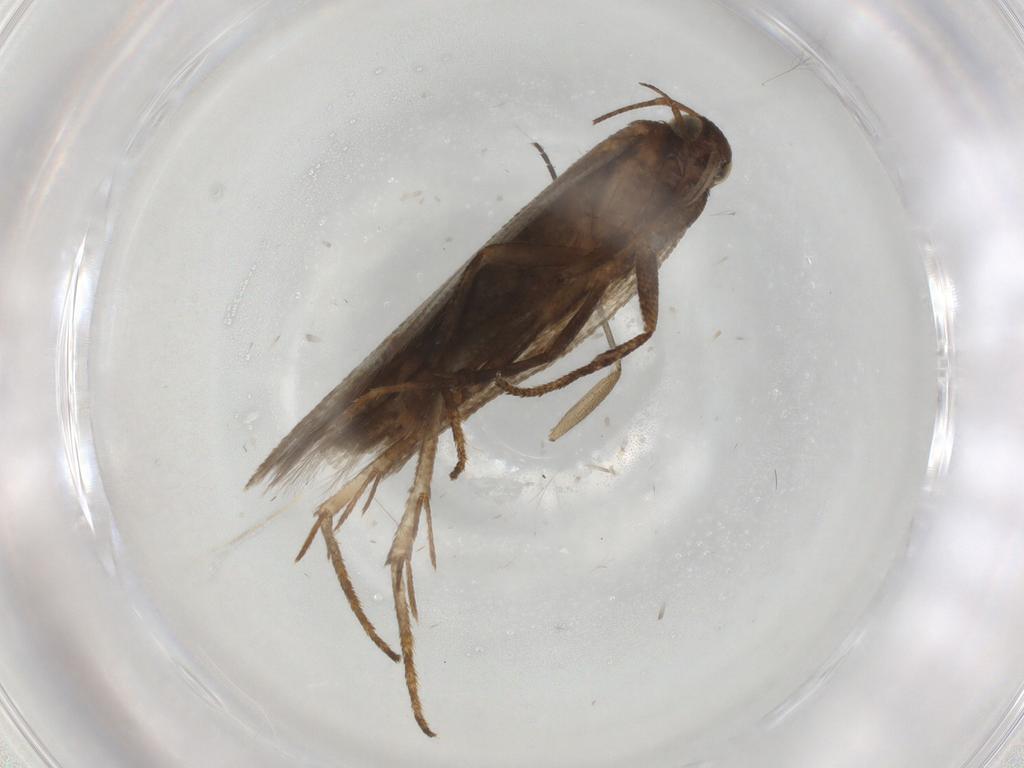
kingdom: Animalia
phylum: Arthropoda
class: Insecta
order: Lepidoptera
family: Gelechiidae
